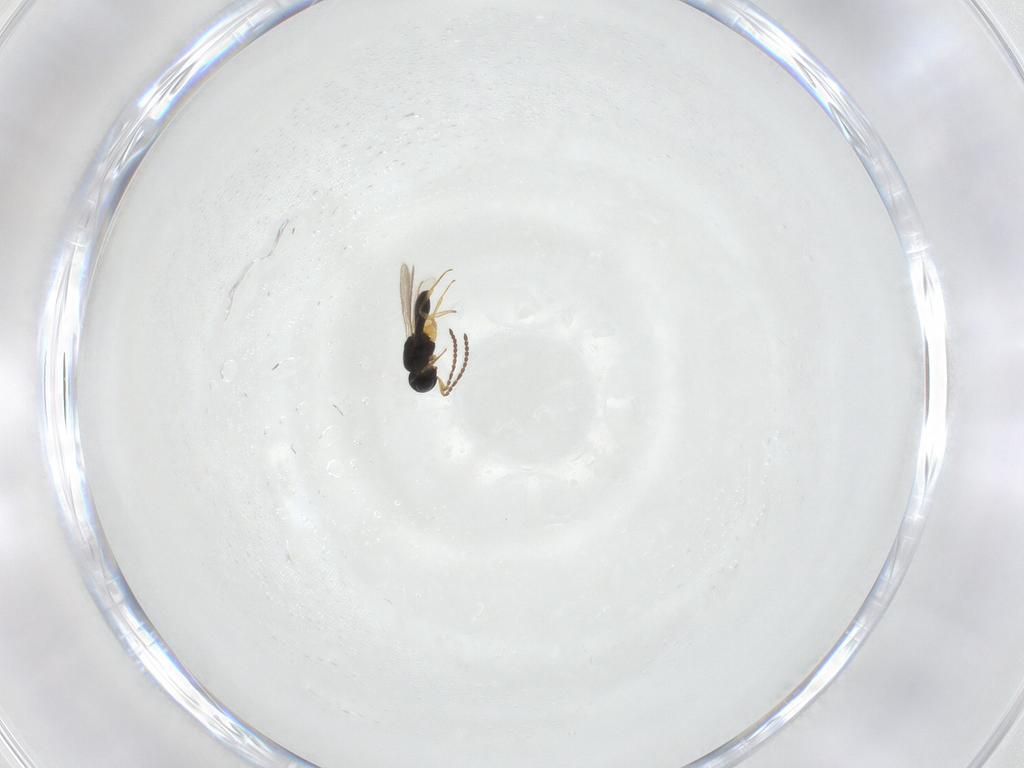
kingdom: Animalia
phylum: Arthropoda
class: Insecta
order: Hymenoptera
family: Scelionidae
